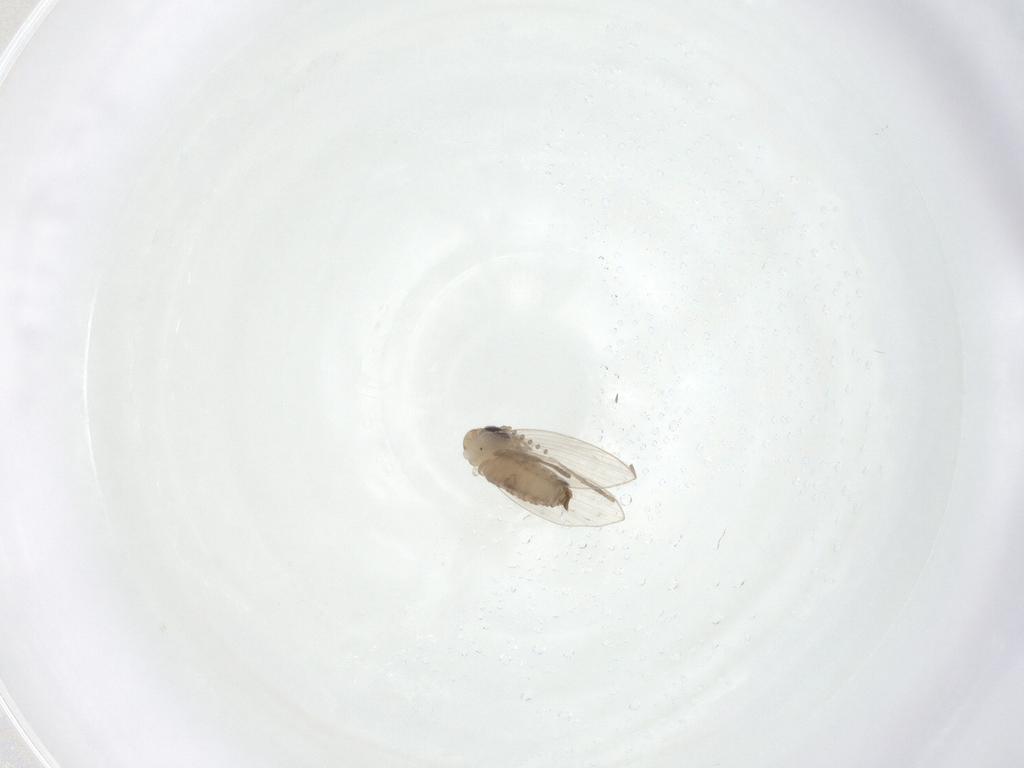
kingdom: Animalia
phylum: Arthropoda
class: Insecta
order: Diptera
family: Psychodidae
